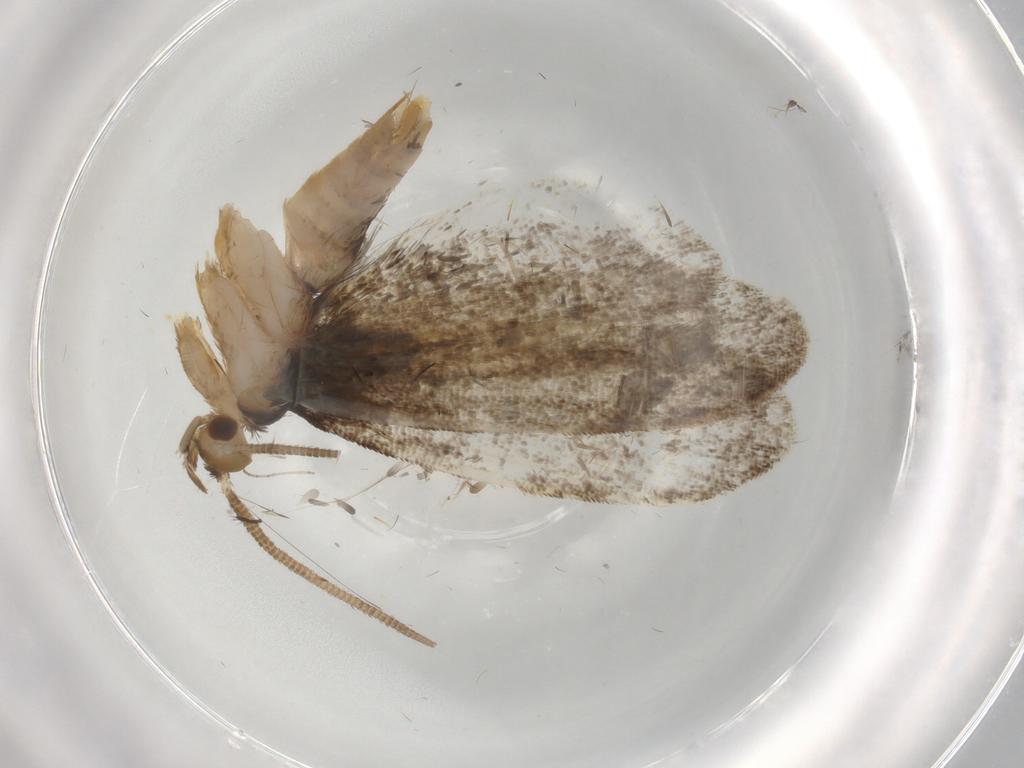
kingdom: Animalia
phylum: Arthropoda
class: Insecta
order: Lepidoptera
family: Dryadaulidae
